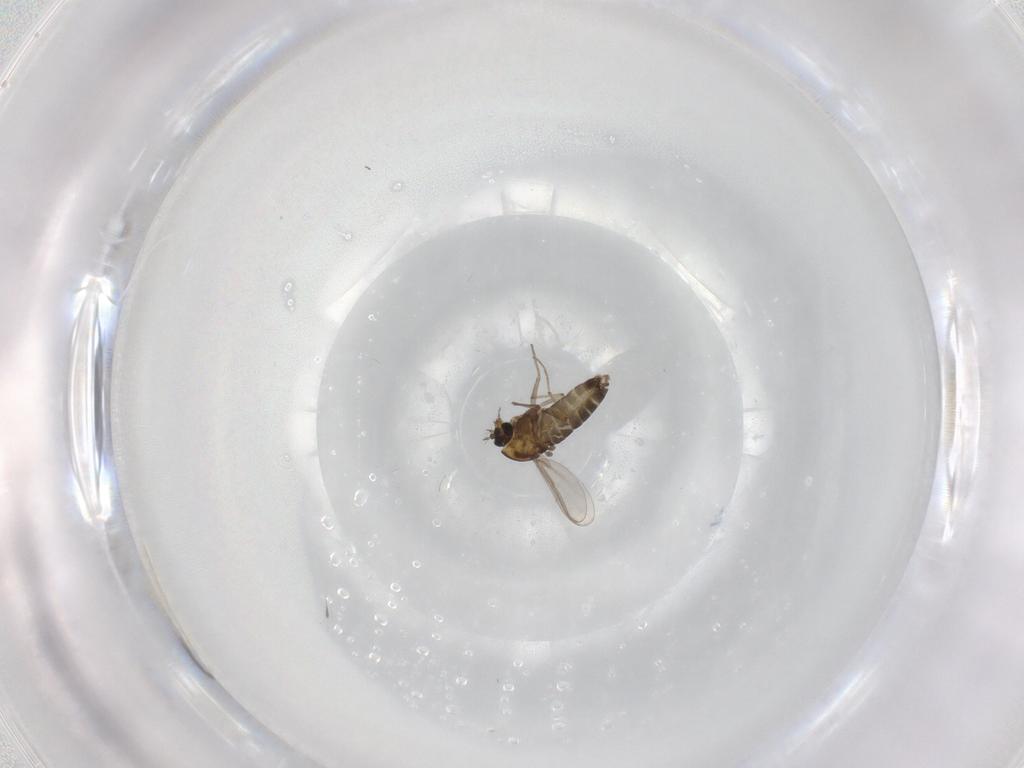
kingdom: Animalia
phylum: Arthropoda
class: Insecta
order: Diptera
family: Chironomidae
